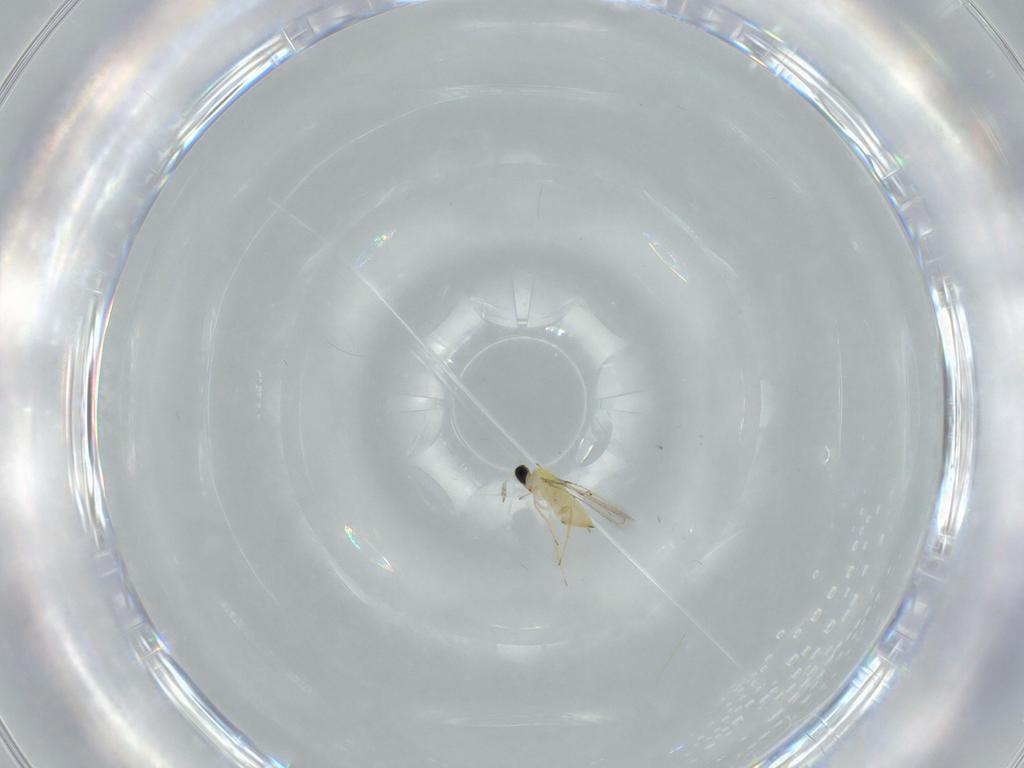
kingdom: Animalia
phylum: Arthropoda
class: Insecta
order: Hymenoptera
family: Trichogrammatidae
